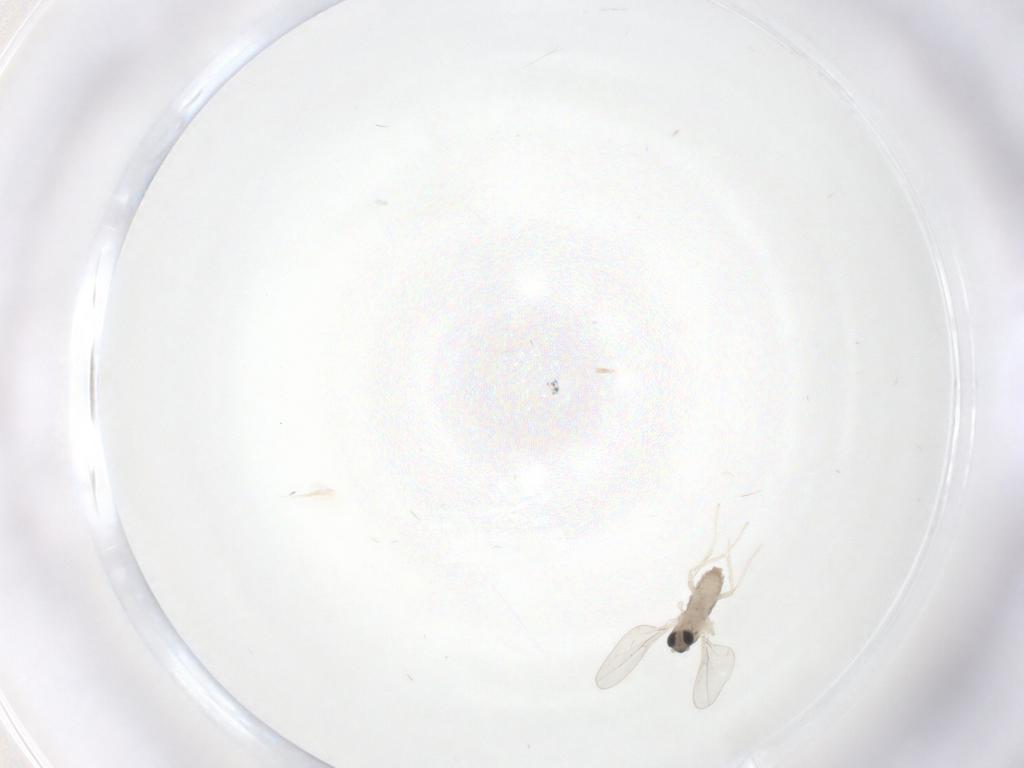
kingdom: Animalia
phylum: Arthropoda
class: Insecta
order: Diptera
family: Cecidomyiidae
